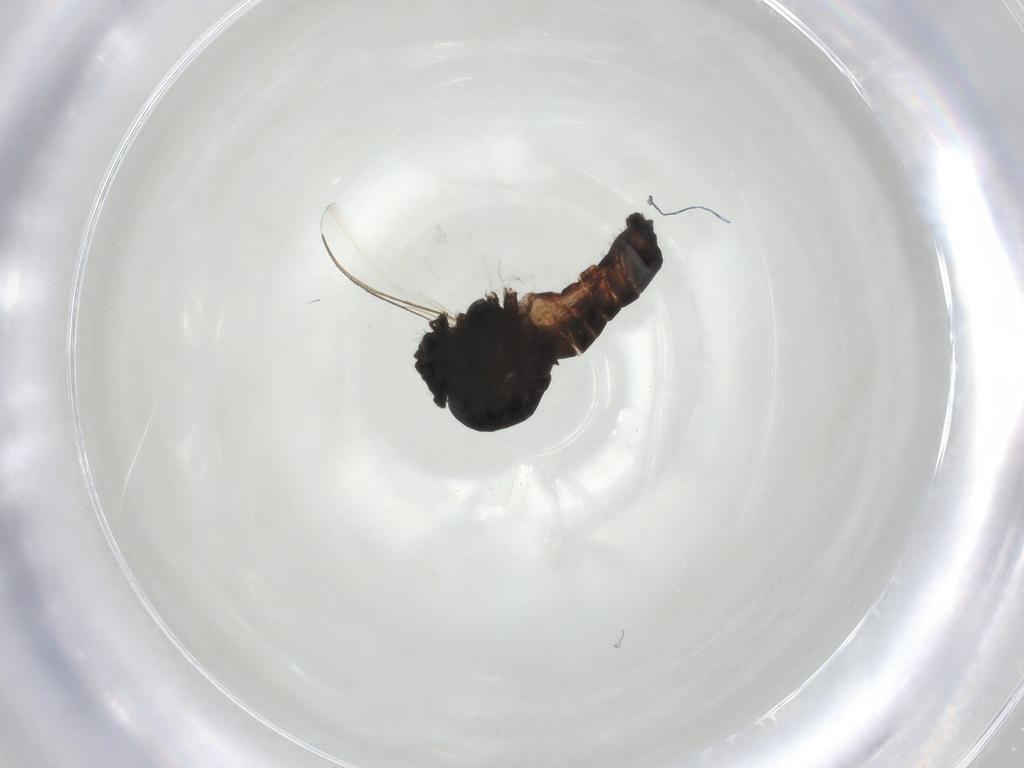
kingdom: Animalia
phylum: Arthropoda
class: Insecta
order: Diptera
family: Simuliidae
